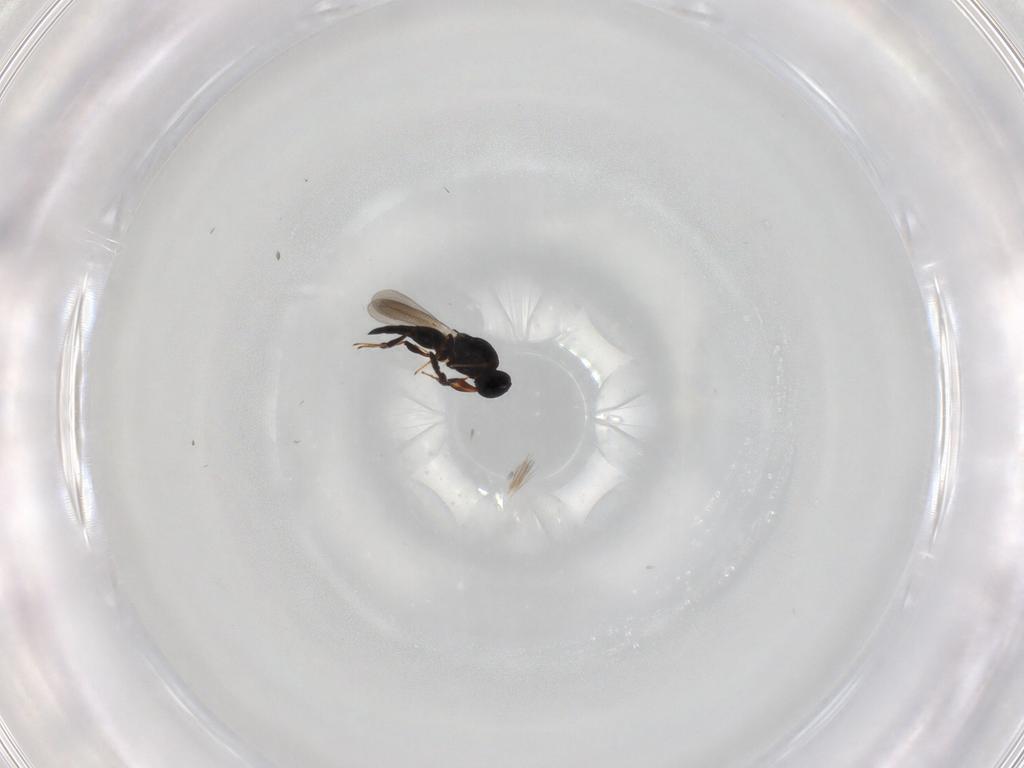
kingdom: Animalia
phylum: Arthropoda
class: Insecta
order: Hymenoptera
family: Platygastridae
